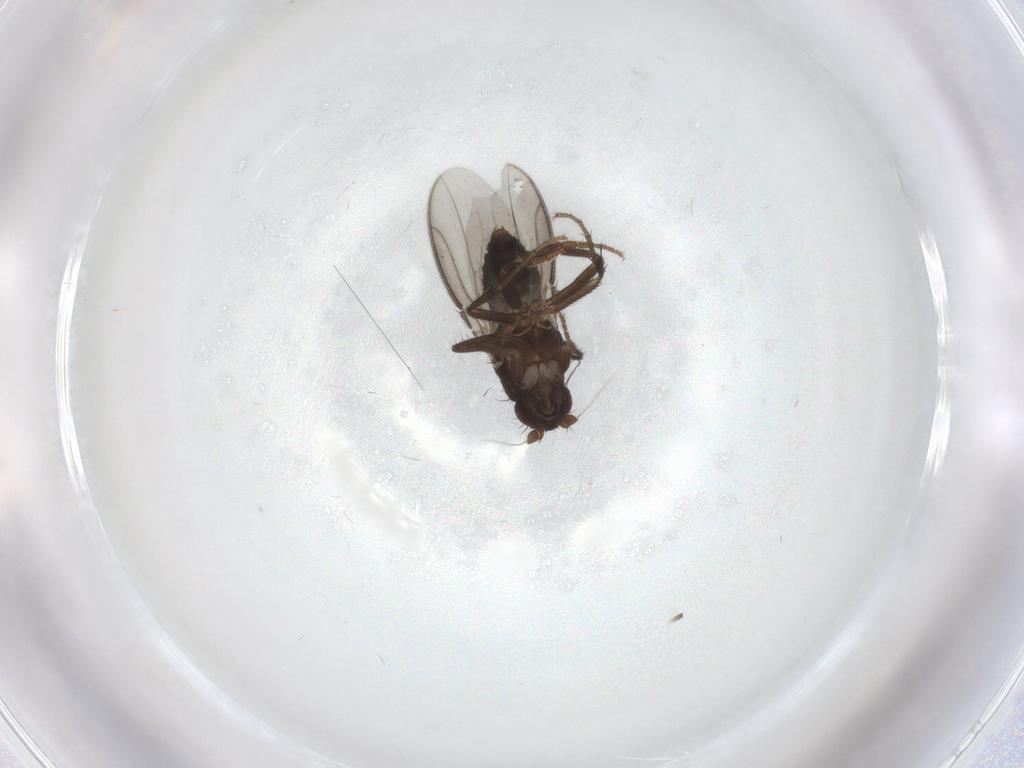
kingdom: Animalia
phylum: Arthropoda
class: Insecta
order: Diptera
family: Sphaeroceridae
